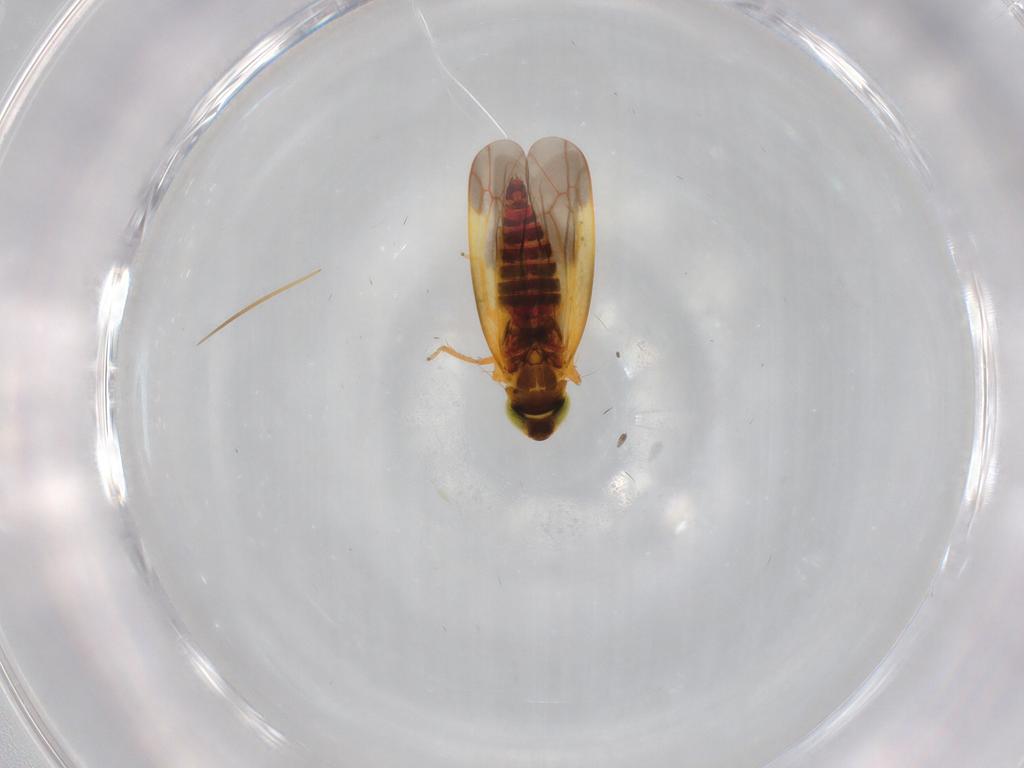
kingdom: Animalia
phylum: Arthropoda
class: Insecta
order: Hemiptera
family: Cicadellidae
